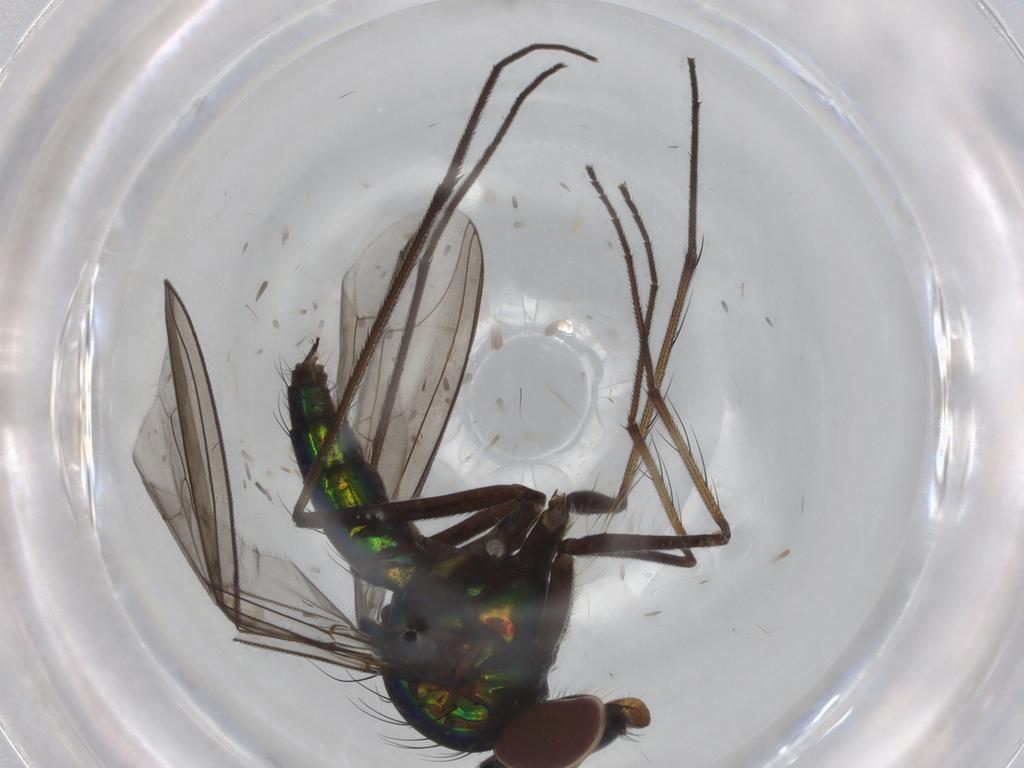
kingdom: Animalia
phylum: Arthropoda
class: Insecta
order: Diptera
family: Dolichopodidae
